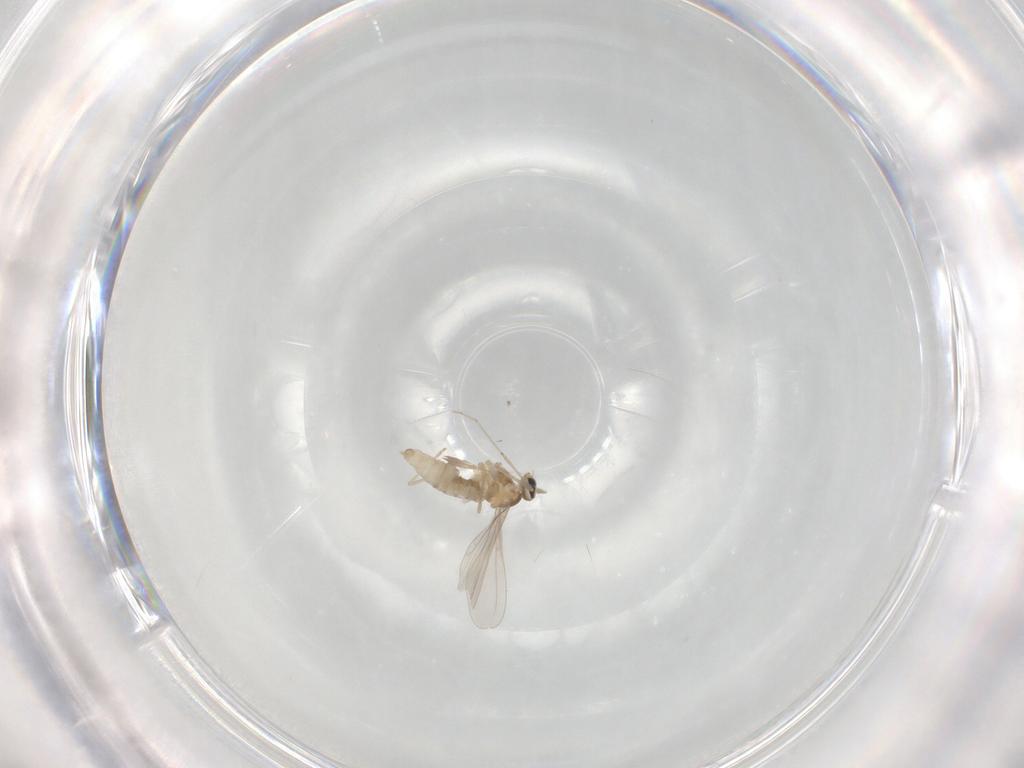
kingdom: Animalia
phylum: Arthropoda
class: Insecta
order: Diptera
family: Cecidomyiidae
